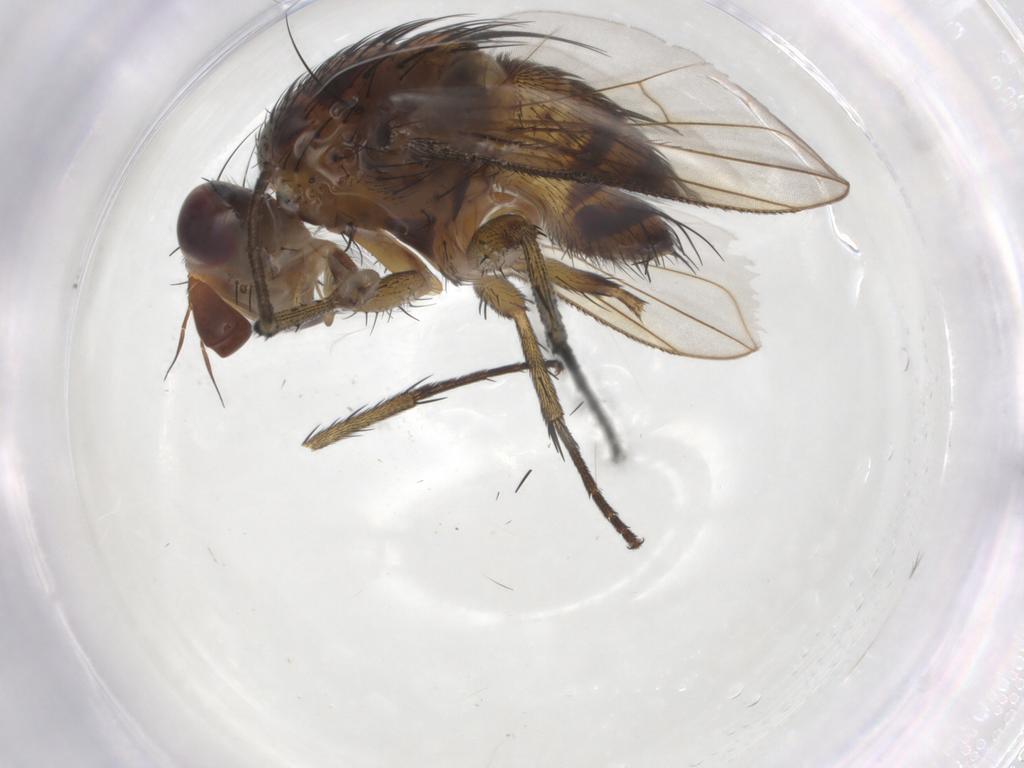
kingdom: Animalia
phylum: Arthropoda
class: Insecta
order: Diptera
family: Tachinidae
